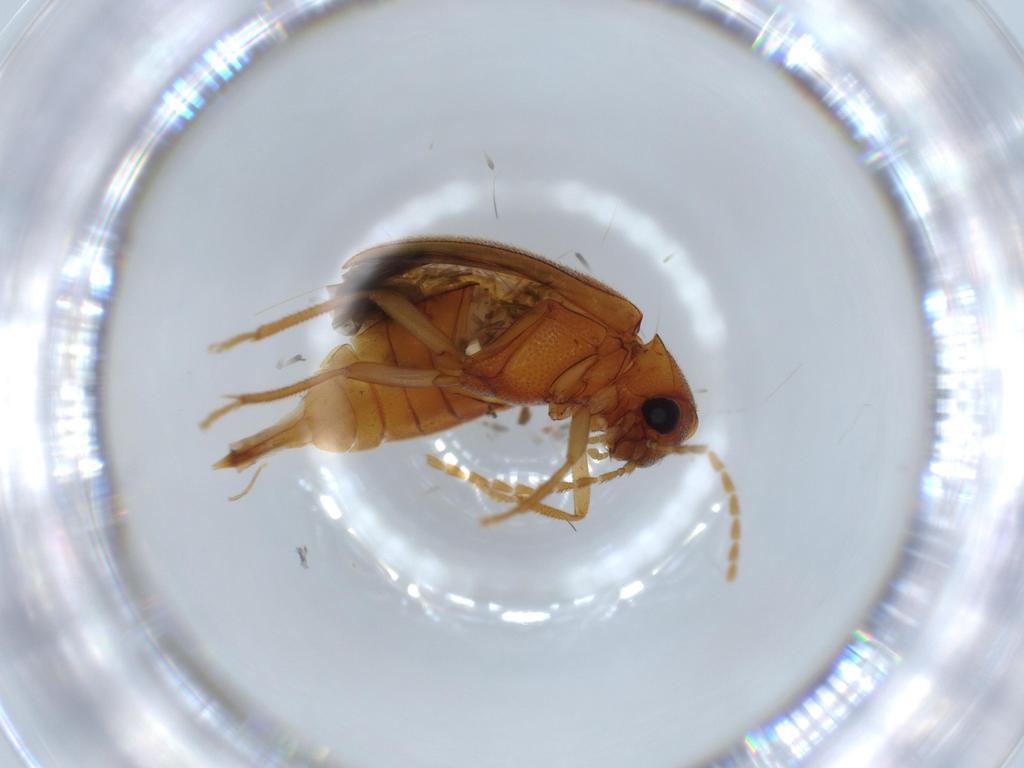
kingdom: Animalia
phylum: Arthropoda
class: Insecta
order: Coleoptera
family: Ptilodactylidae
